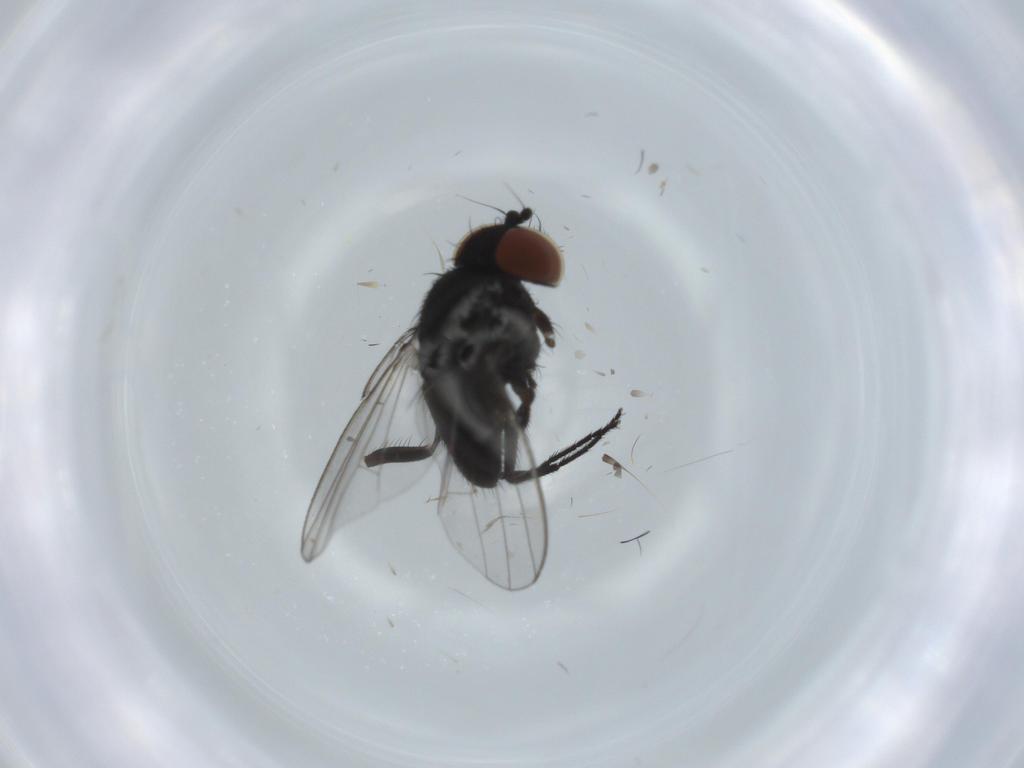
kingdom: Animalia
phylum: Arthropoda
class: Insecta
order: Diptera
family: Milichiidae
